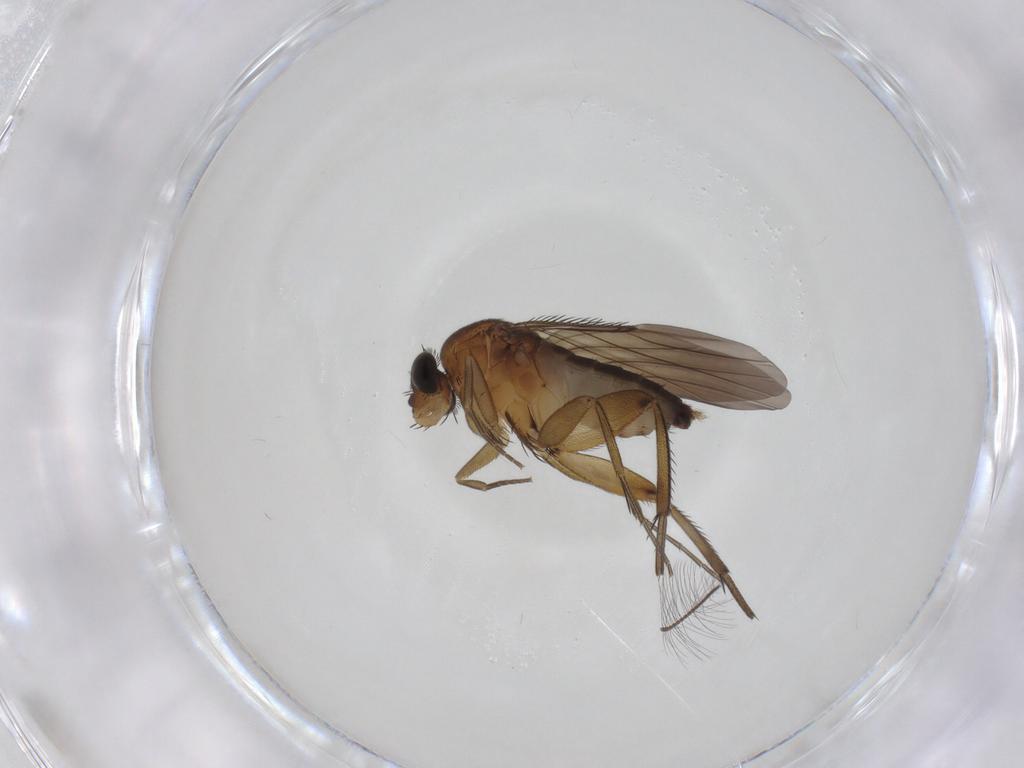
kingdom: Animalia
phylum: Arthropoda
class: Insecta
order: Diptera
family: Phoridae
